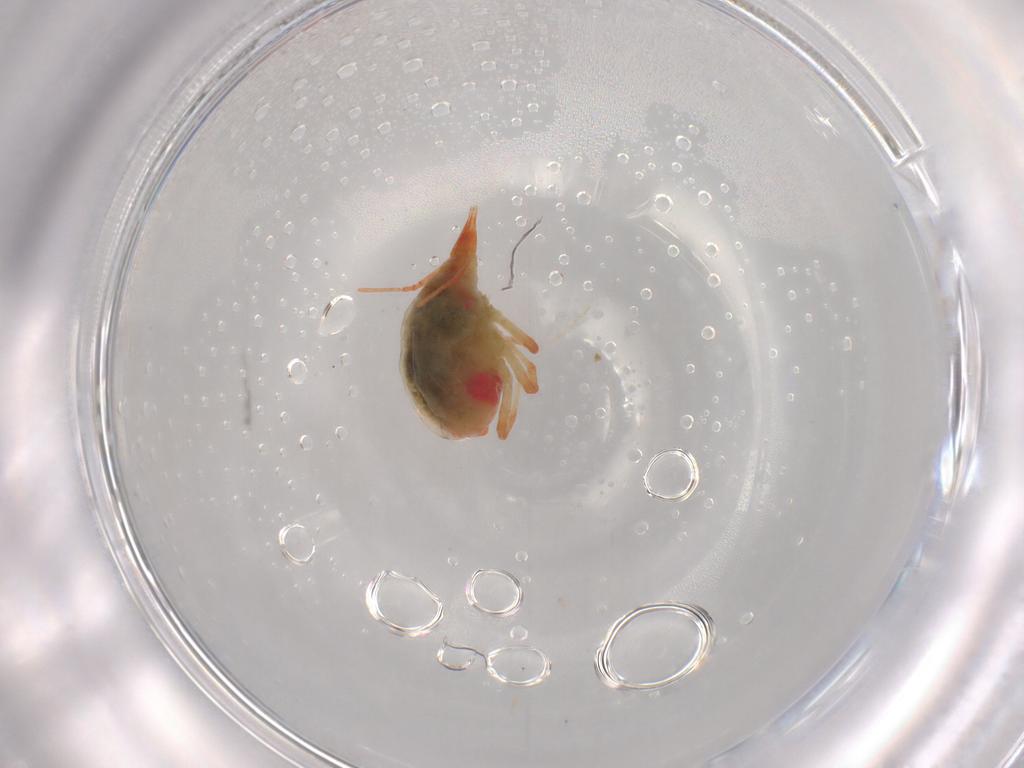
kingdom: Animalia
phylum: Arthropoda
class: Arachnida
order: Trombidiformes
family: Bdellidae
